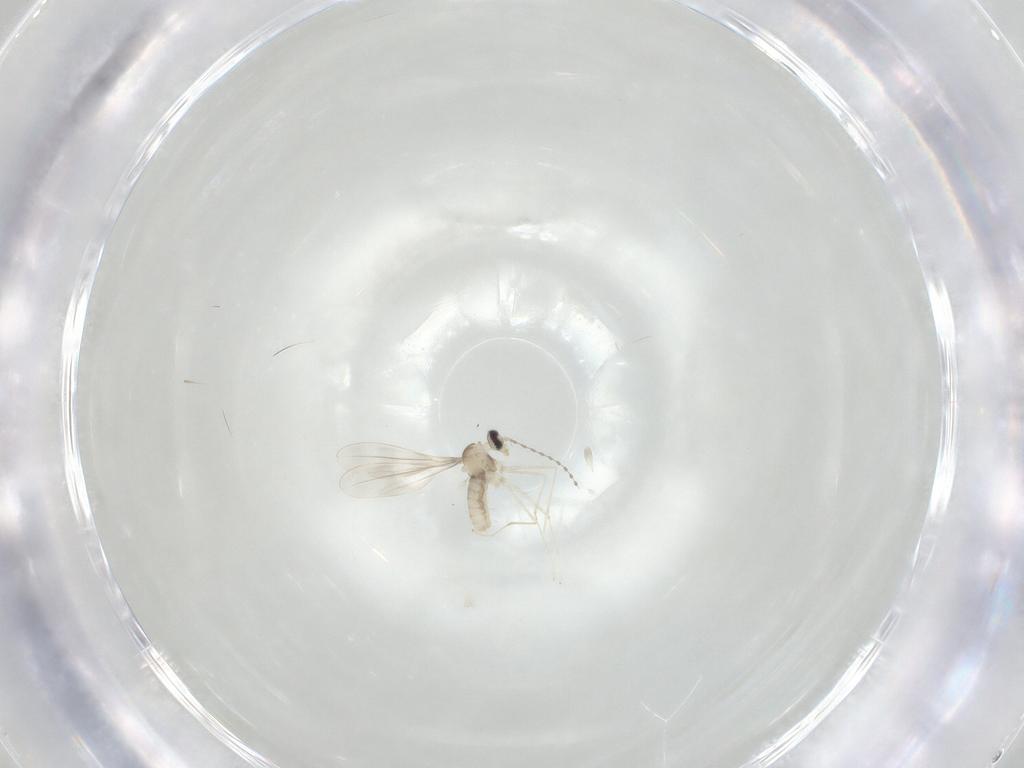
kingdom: Animalia
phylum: Arthropoda
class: Insecta
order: Diptera
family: Cecidomyiidae
